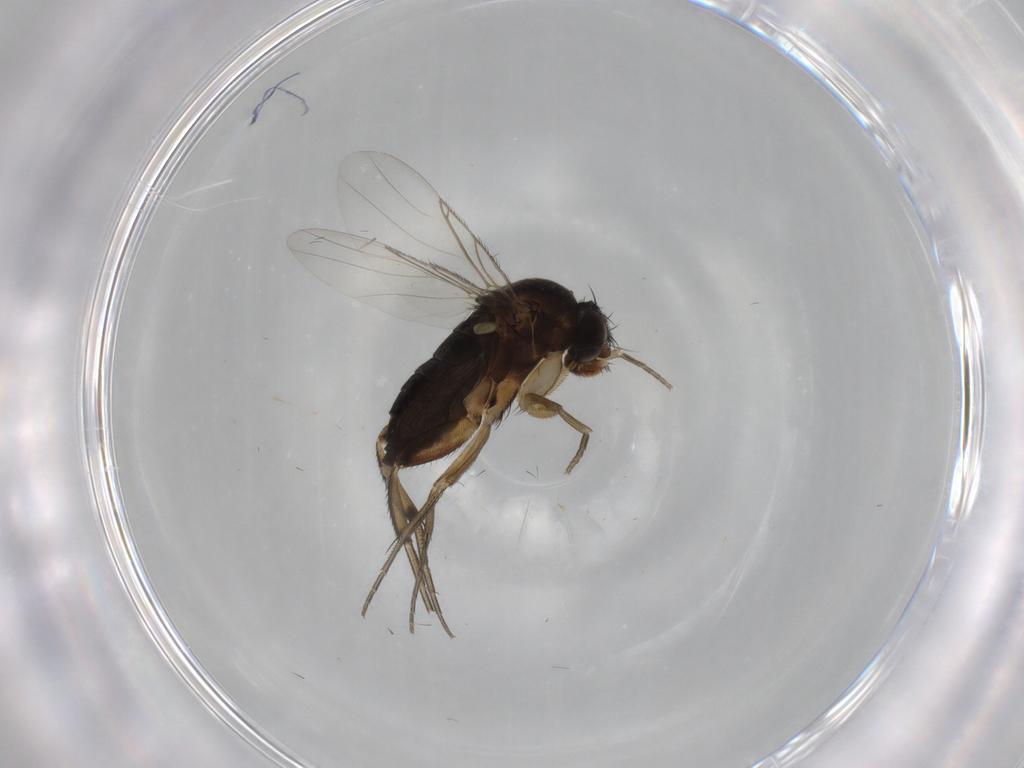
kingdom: Animalia
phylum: Arthropoda
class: Insecta
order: Diptera
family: Phoridae
